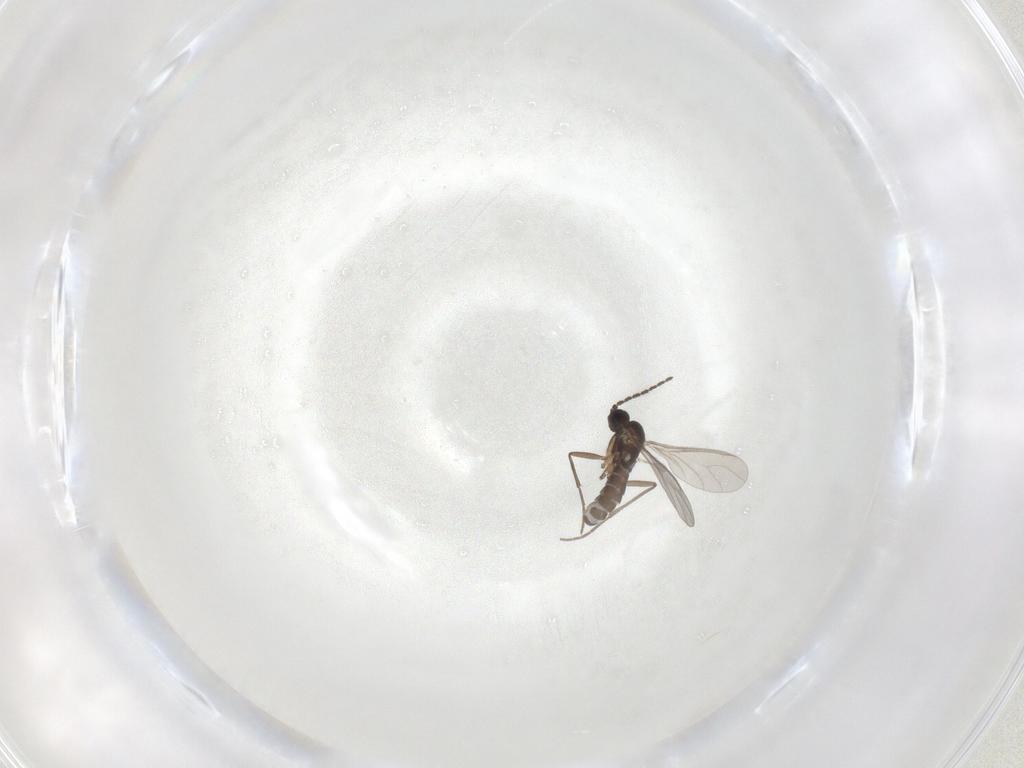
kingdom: Animalia
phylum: Arthropoda
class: Insecta
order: Diptera
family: Sciaridae
